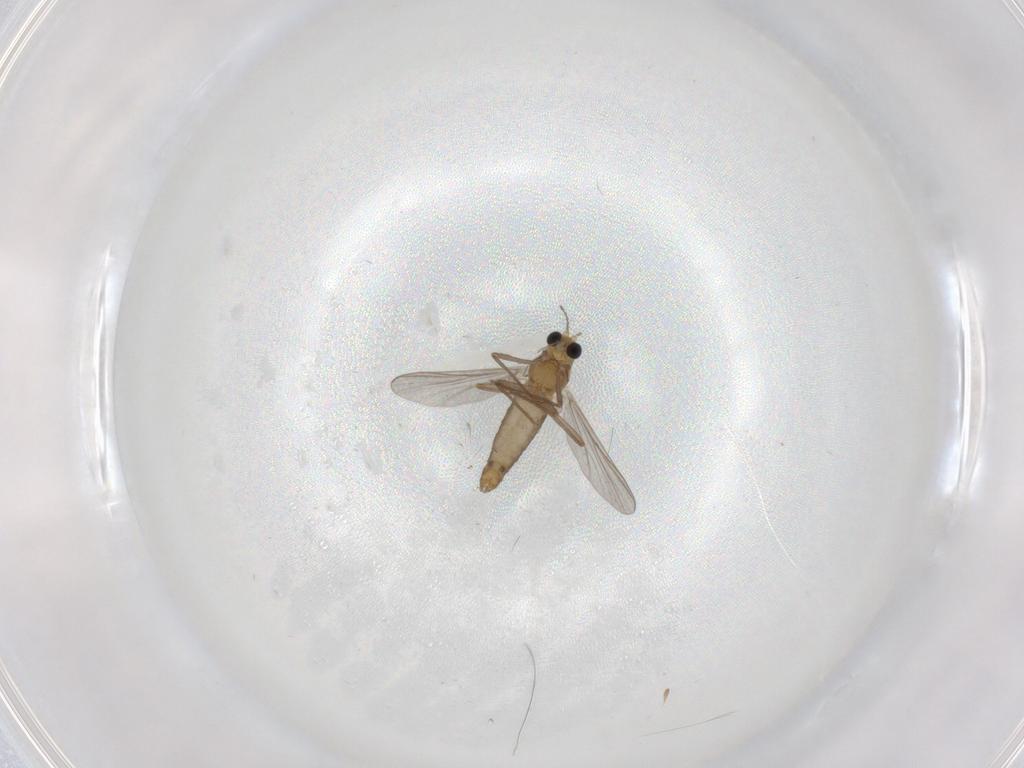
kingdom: Animalia
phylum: Arthropoda
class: Insecta
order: Diptera
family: Chironomidae
